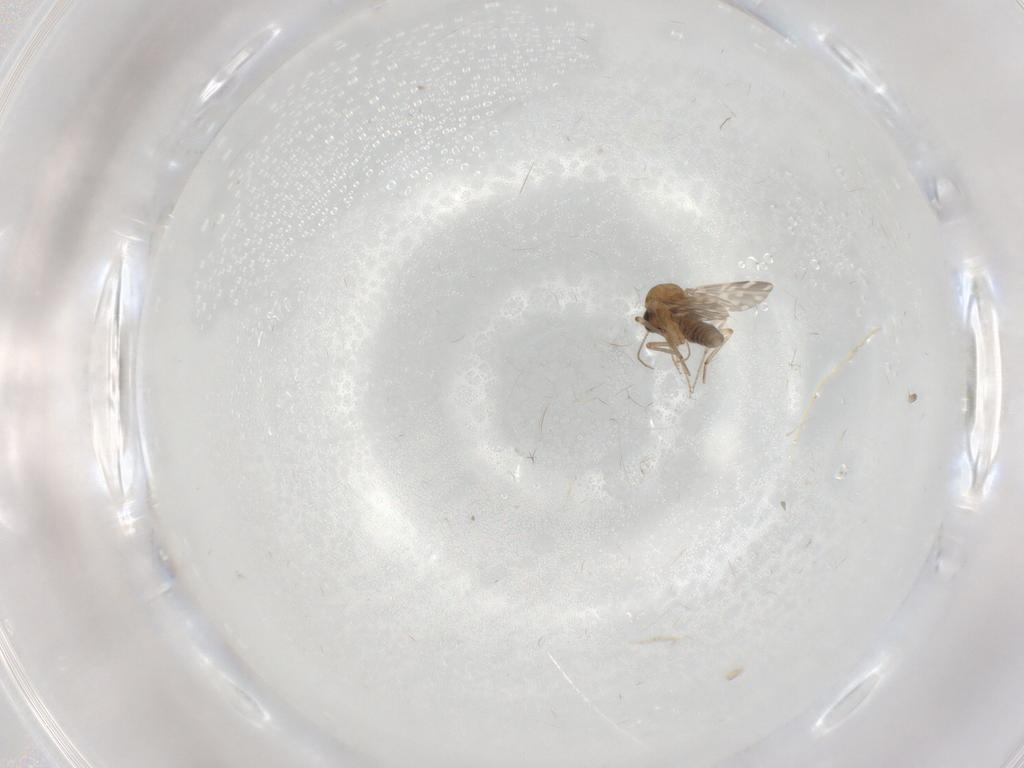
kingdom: Animalia
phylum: Arthropoda
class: Insecta
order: Diptera
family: Ceratopogonidae
